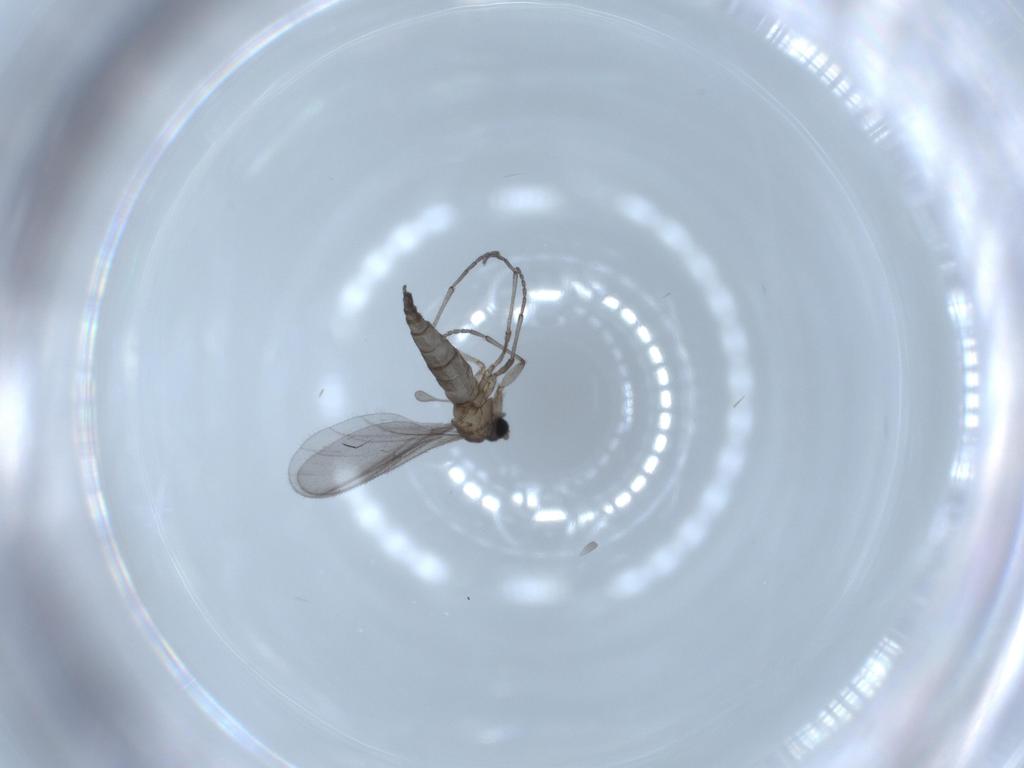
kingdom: Animalia
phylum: Arthropoda
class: Insecta
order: Diptera
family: Sciaridae
